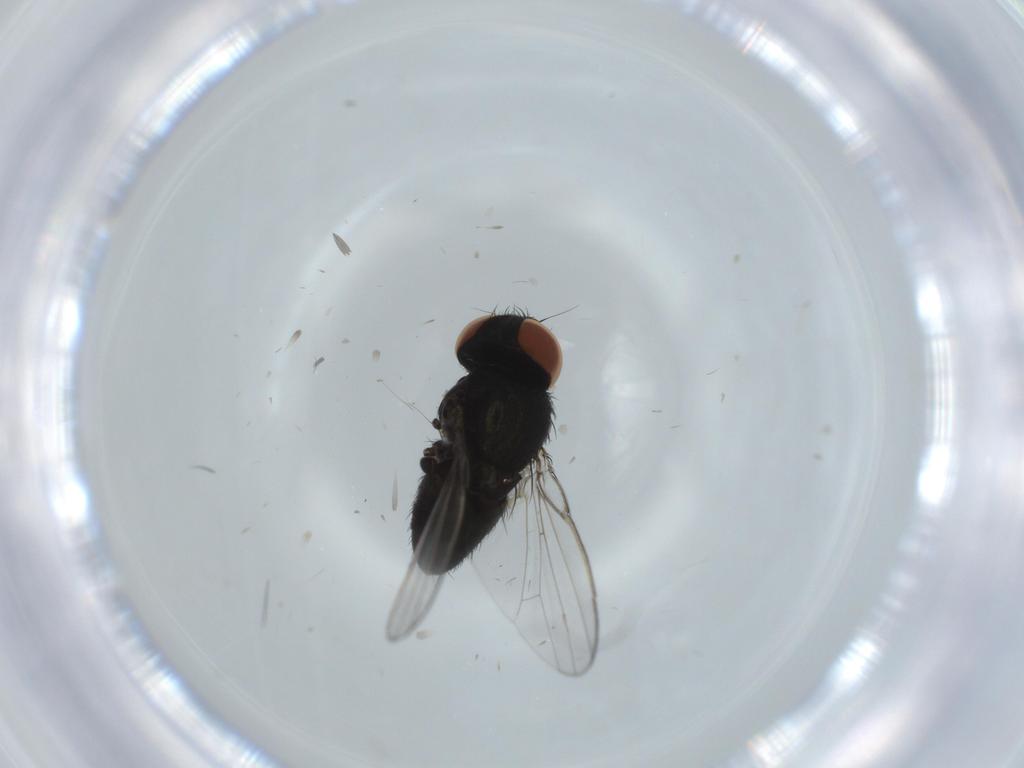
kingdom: Animalia
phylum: Arthropoda
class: Insecta
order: Diptera
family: Milichiidae
